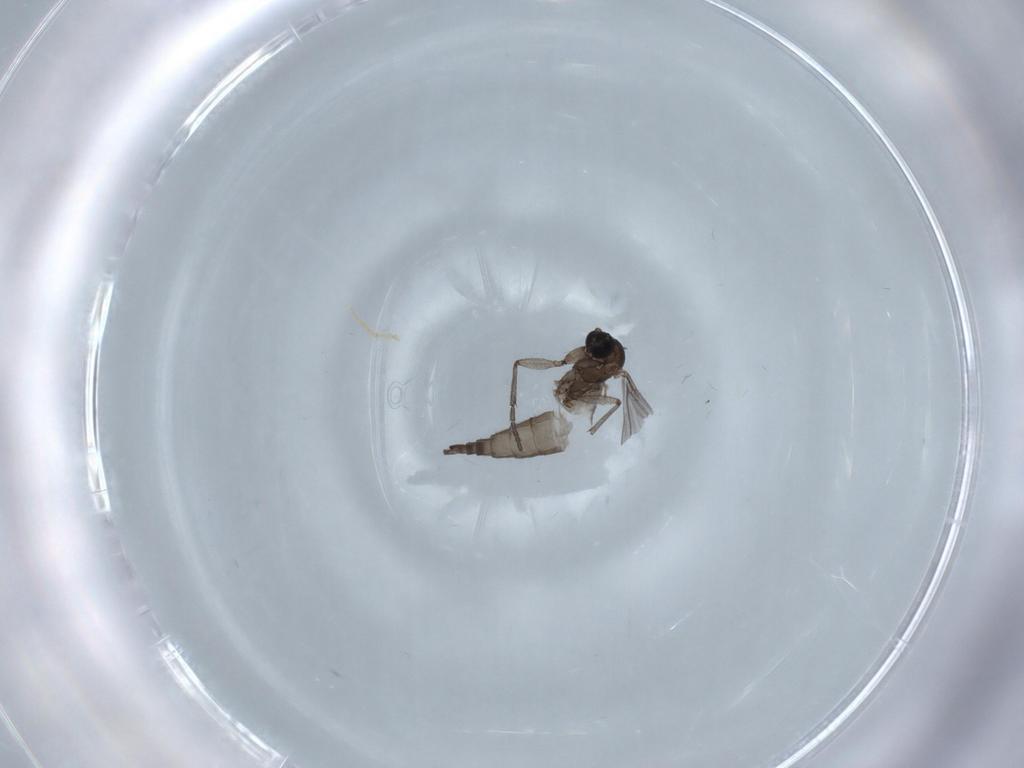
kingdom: Animalia
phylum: Arthropoda
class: Insecta
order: Diptera
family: Sciaridae
